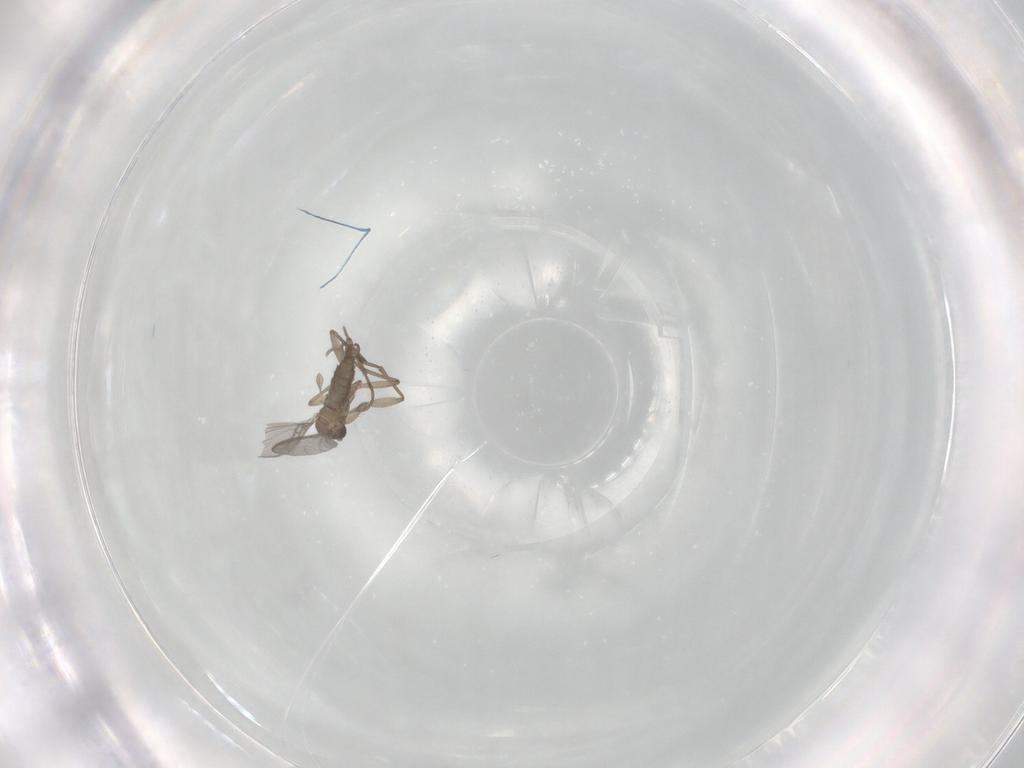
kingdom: Animalia
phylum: Arthropoda
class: Insecta
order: Diptera
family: Sciaridae
